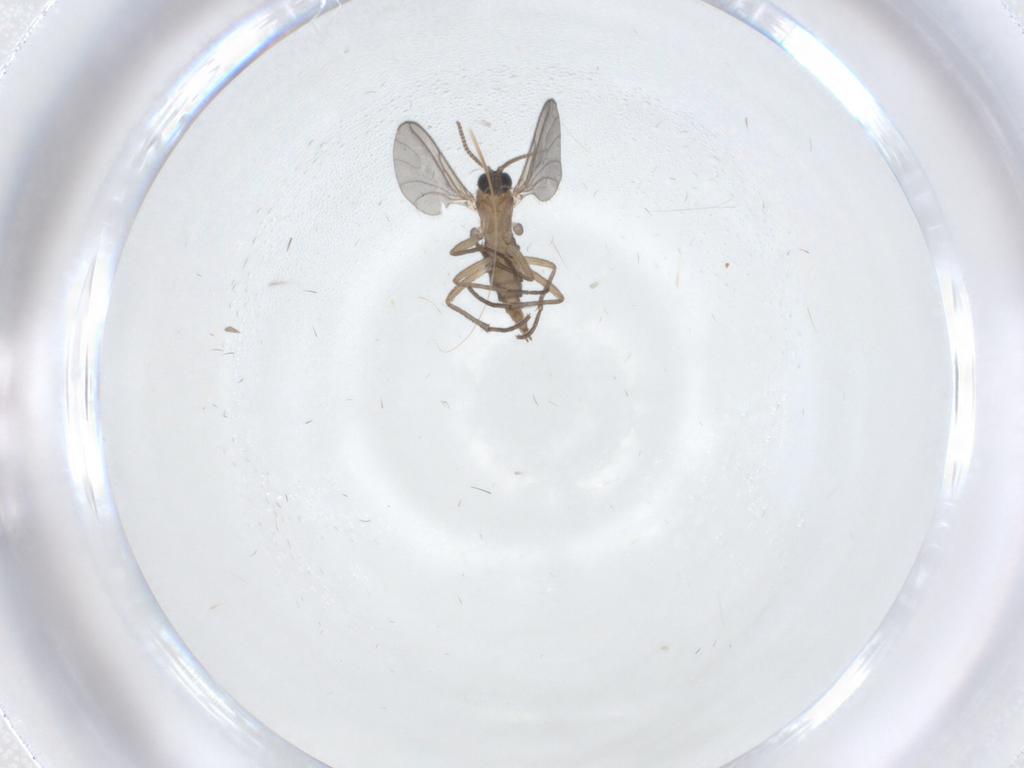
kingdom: Animalia
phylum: Arthropoda
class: Insecta
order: Diptera
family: Sciaridae
